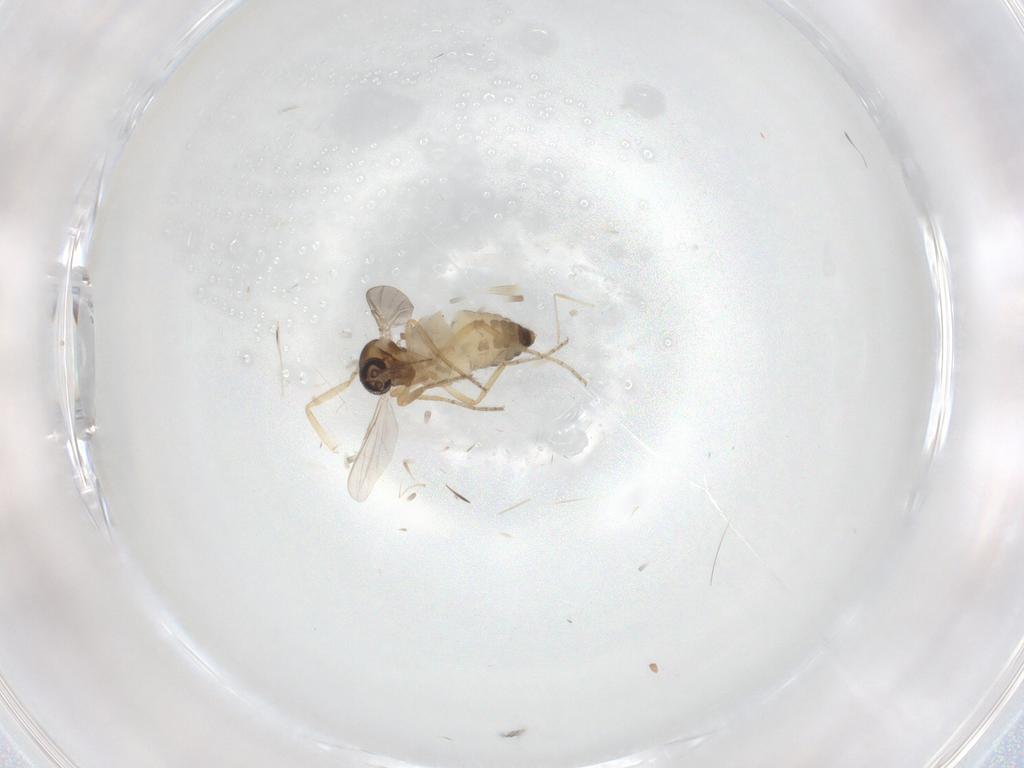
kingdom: Animalia
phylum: Arthropoda
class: Insecta
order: Diptera
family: Ceratopogonidae
